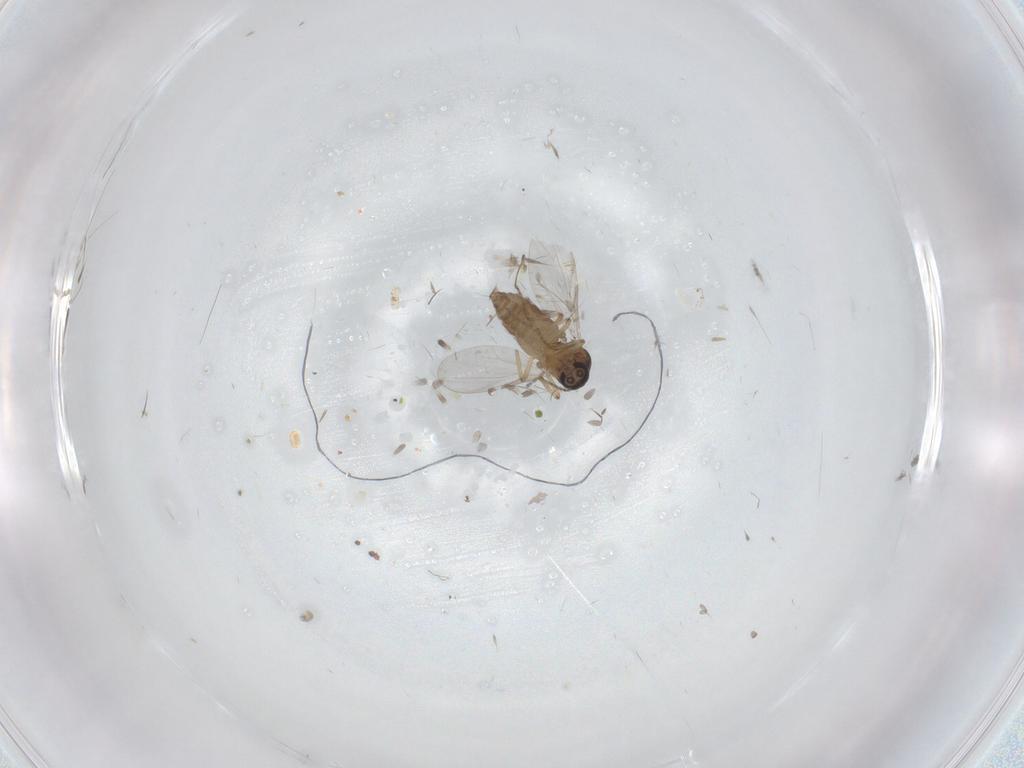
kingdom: Animalia
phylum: Arthropoda
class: Insecta
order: Diptera
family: Ceratopogonidae
